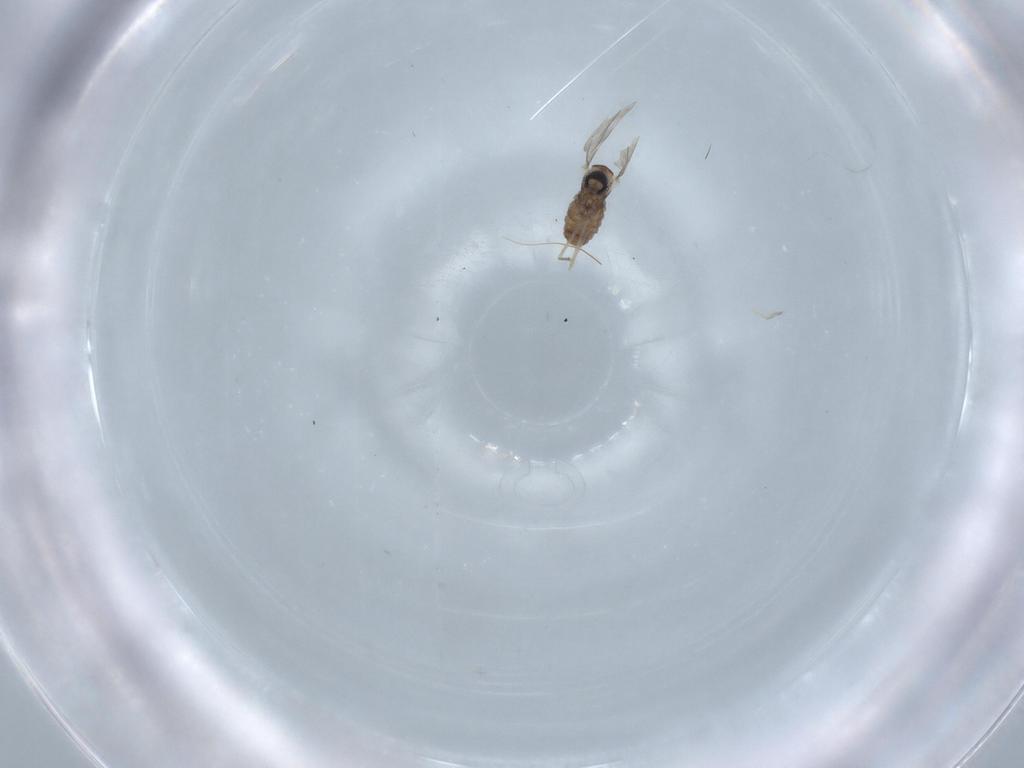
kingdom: Animalia
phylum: Arthropoda
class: Insecta
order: Diptera
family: Cecidomyiidae
